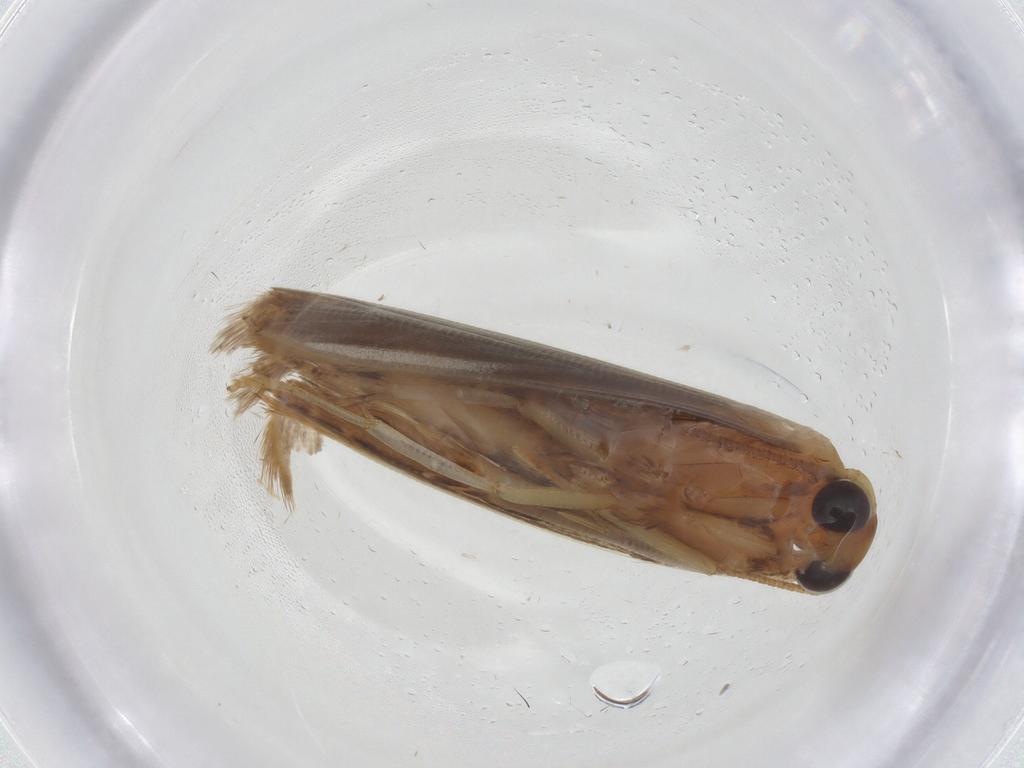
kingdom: Animalia
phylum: Arthropoda
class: Insecta
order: Lepidoptera
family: Blastobasidae
